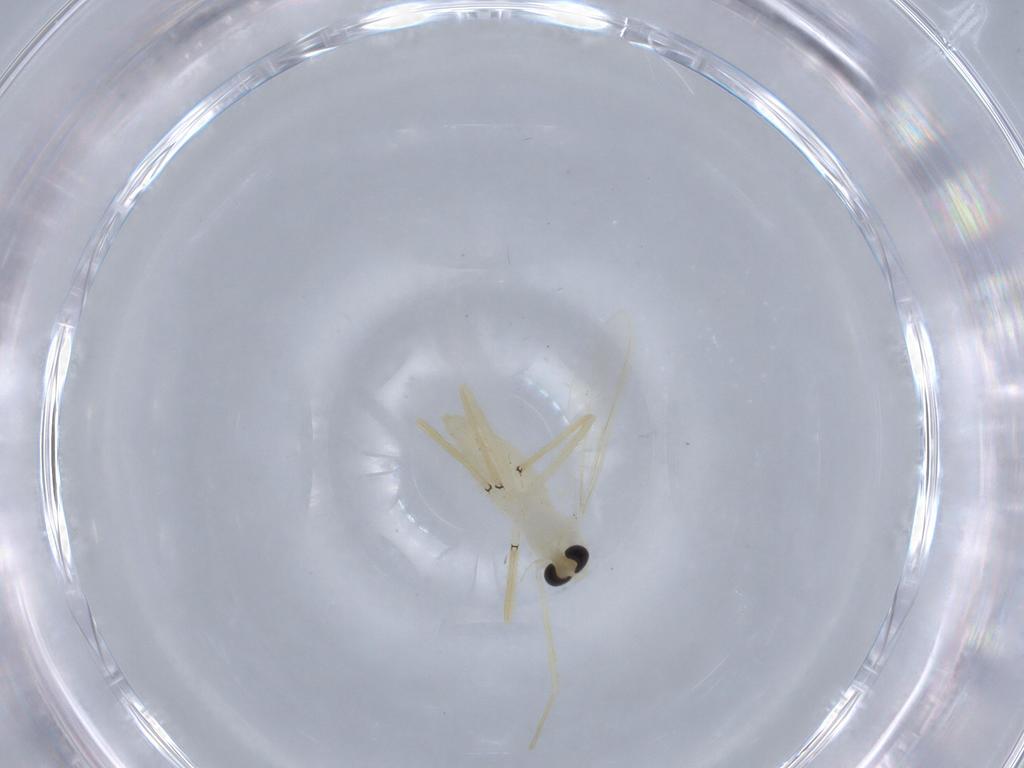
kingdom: Animalia
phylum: Arthropoda
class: Insecta
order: Diptera
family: Chironomidae
